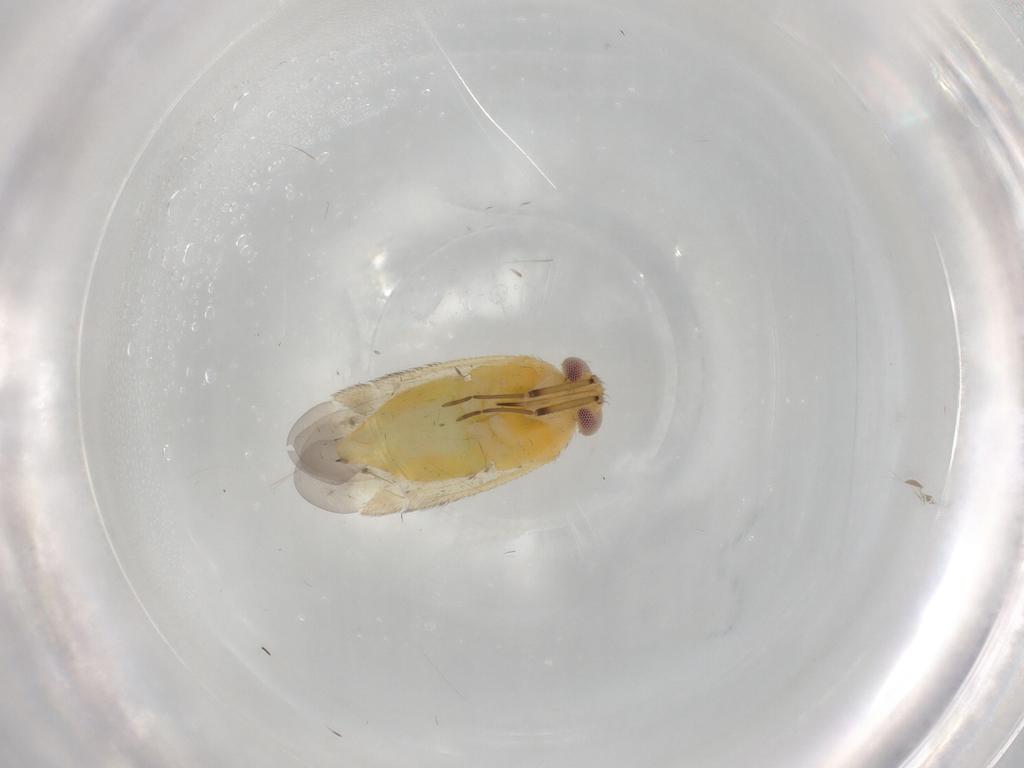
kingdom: Animalia
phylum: Arthropoda
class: Insecta
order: Hemiptera
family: Miridae
